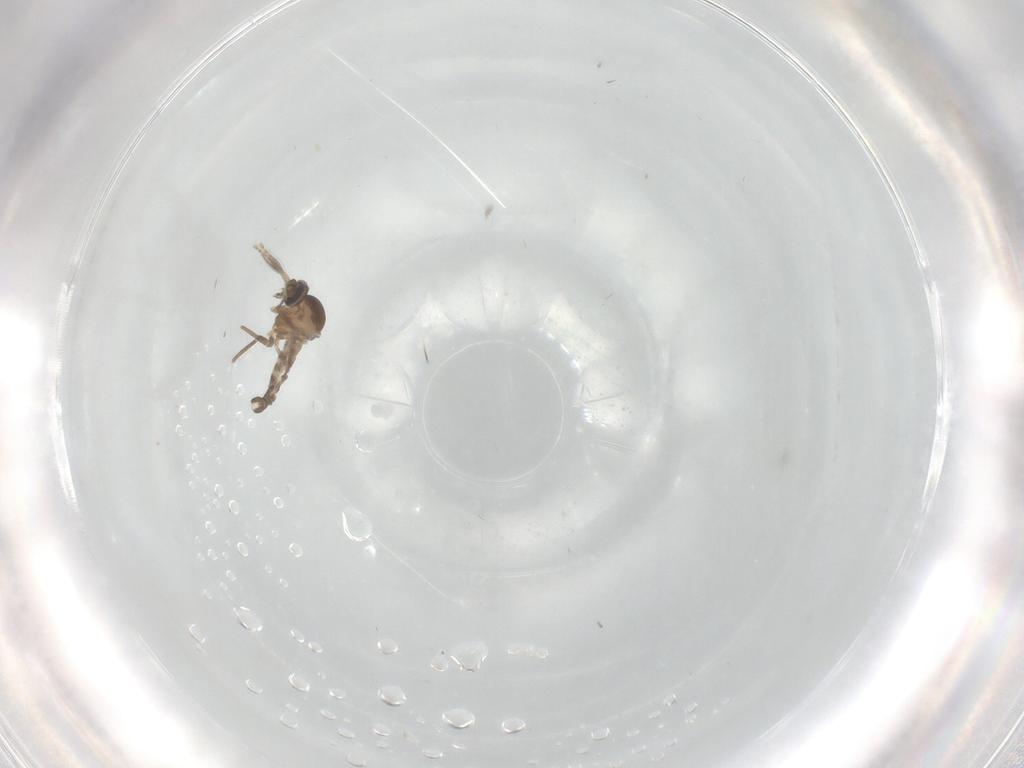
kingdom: Animalia
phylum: Arthropoda
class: Insecta
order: Diptera
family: Ceratopogonidae
